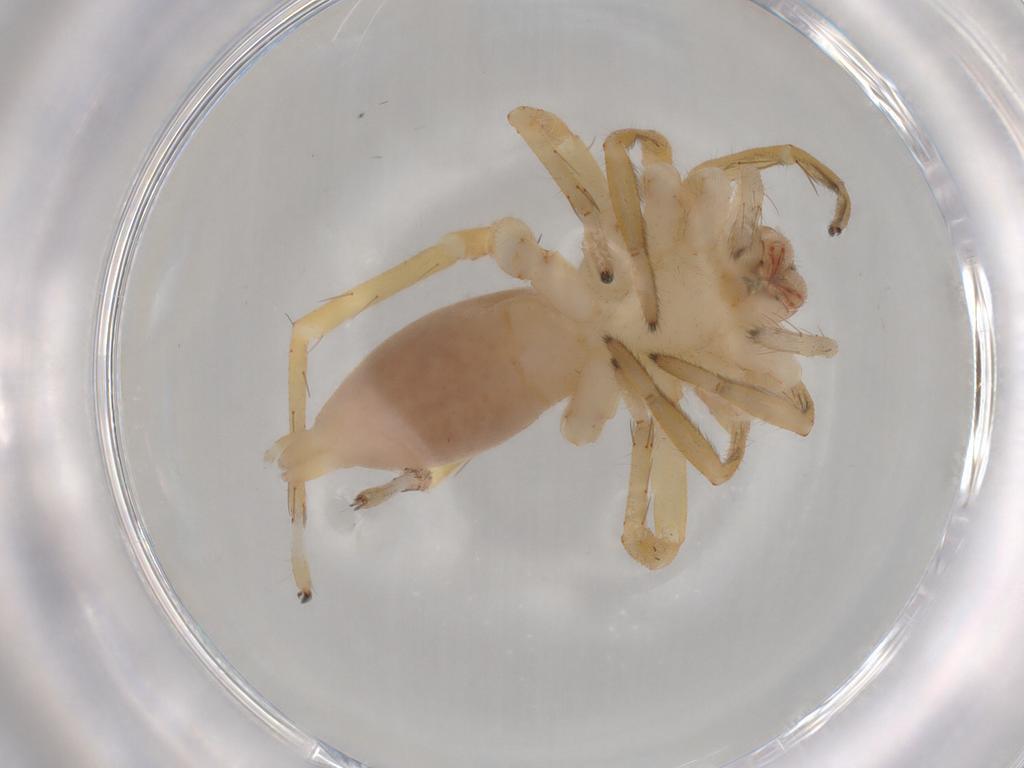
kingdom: Animalia
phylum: Arthropoda
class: Arachnida
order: Araneae
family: Clubionidae
